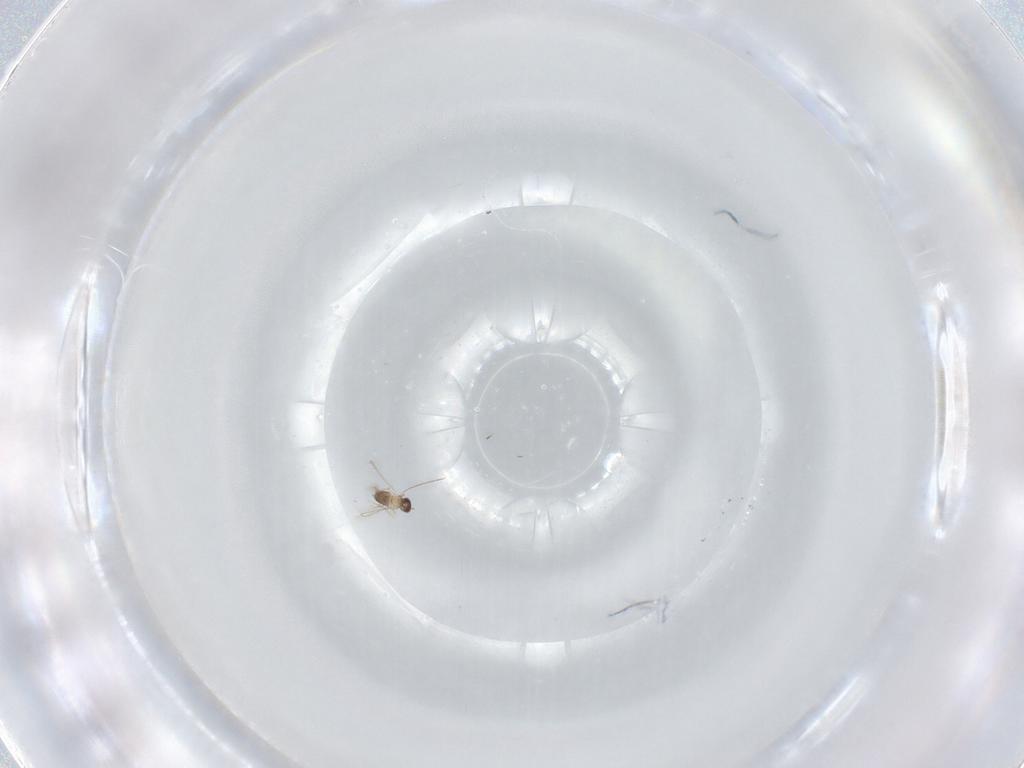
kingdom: Animalia
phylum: Arthropoda
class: Insecta
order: Hymenoptera
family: Mymaridae
